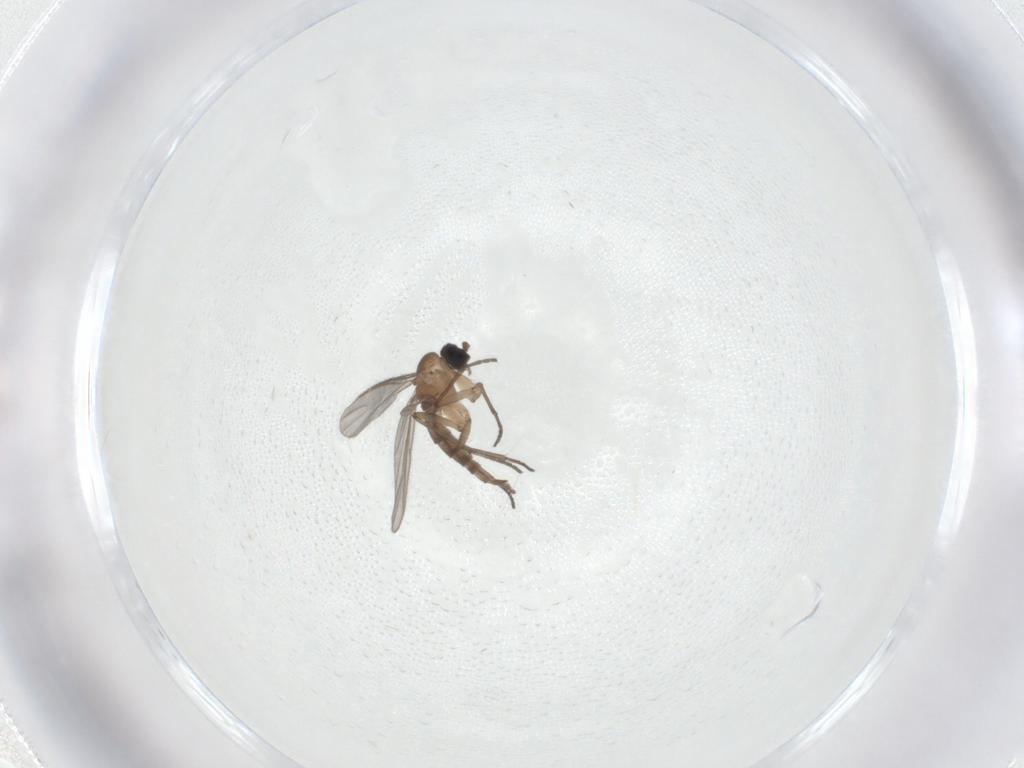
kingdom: Animalia
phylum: Arthropoda
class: Insecta
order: Diptera
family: Sciaridae
